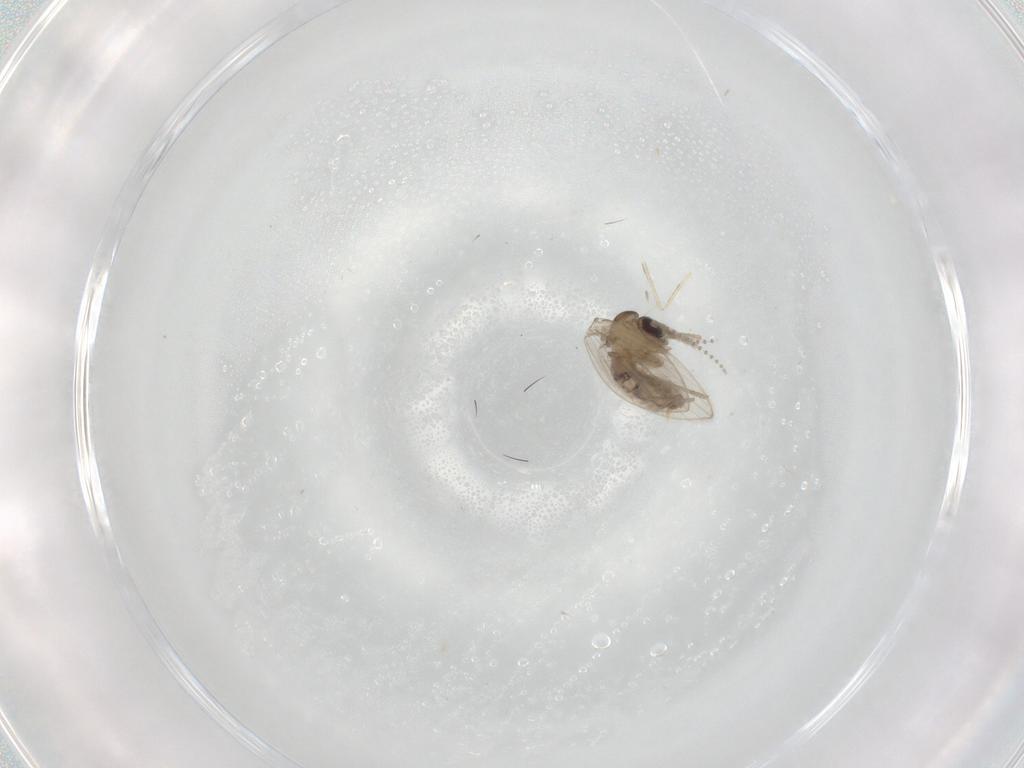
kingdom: Animalia
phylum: Arthropoda
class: Insecta
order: Diptera
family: Psychodidae
